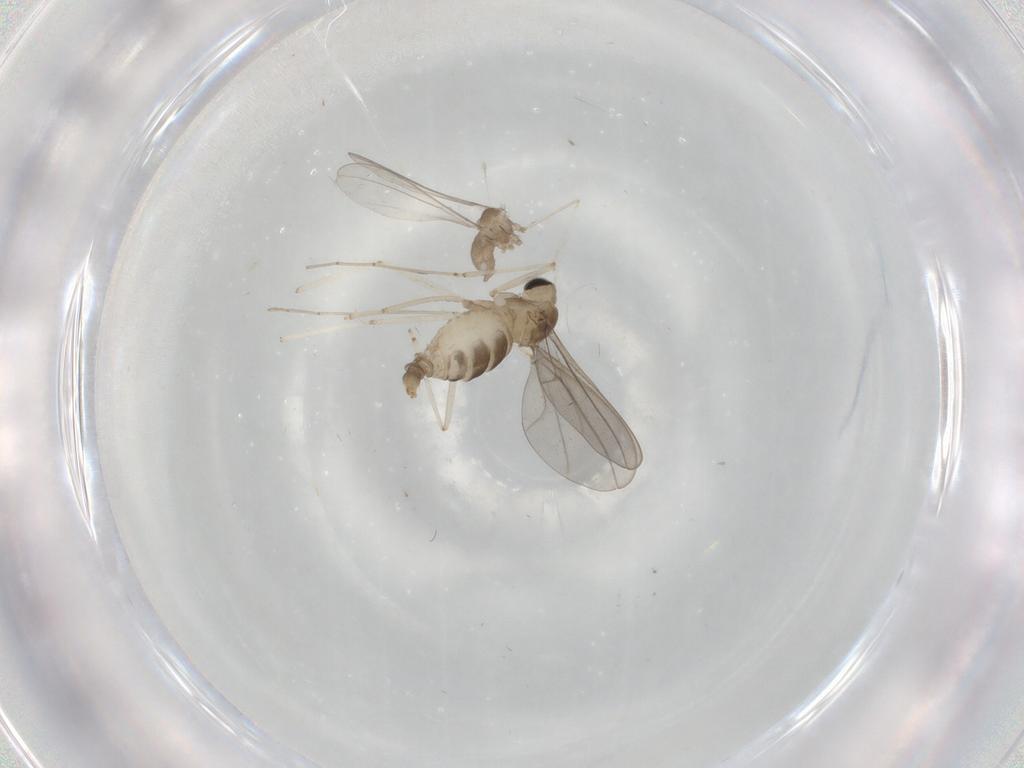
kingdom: Animalia
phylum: Arthropoda
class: Insecta
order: Diptera
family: Cecidomyiidae
